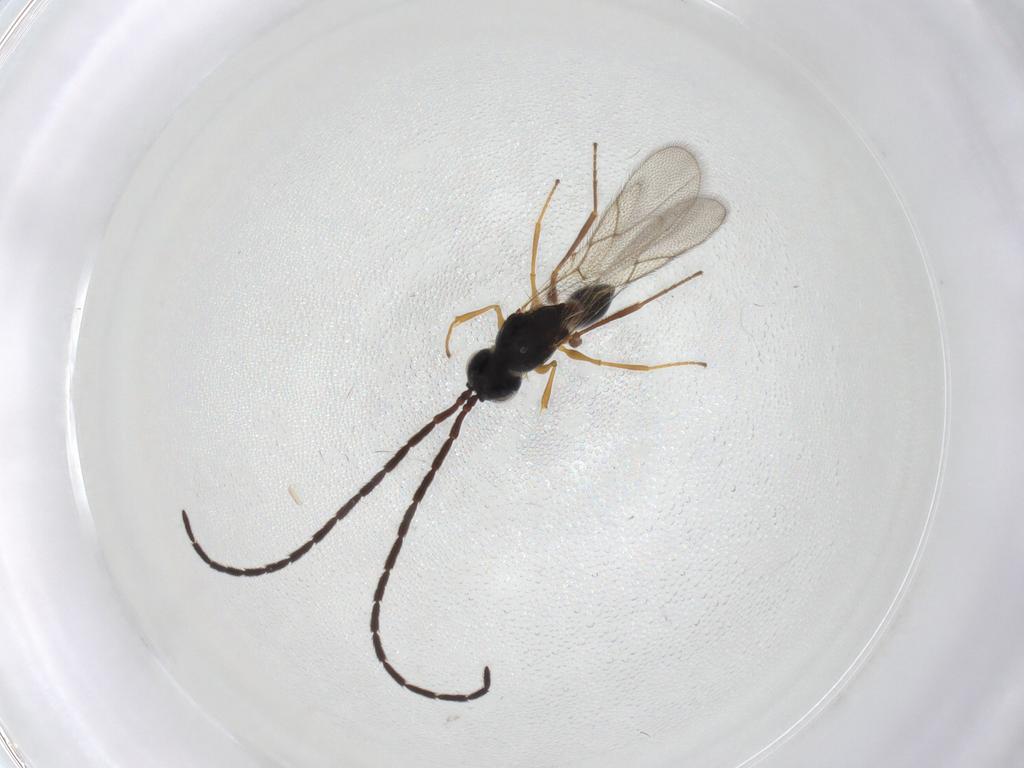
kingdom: Animalia
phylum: Arthropoda
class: Insecta
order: Hymenoptera
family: Figitidae
